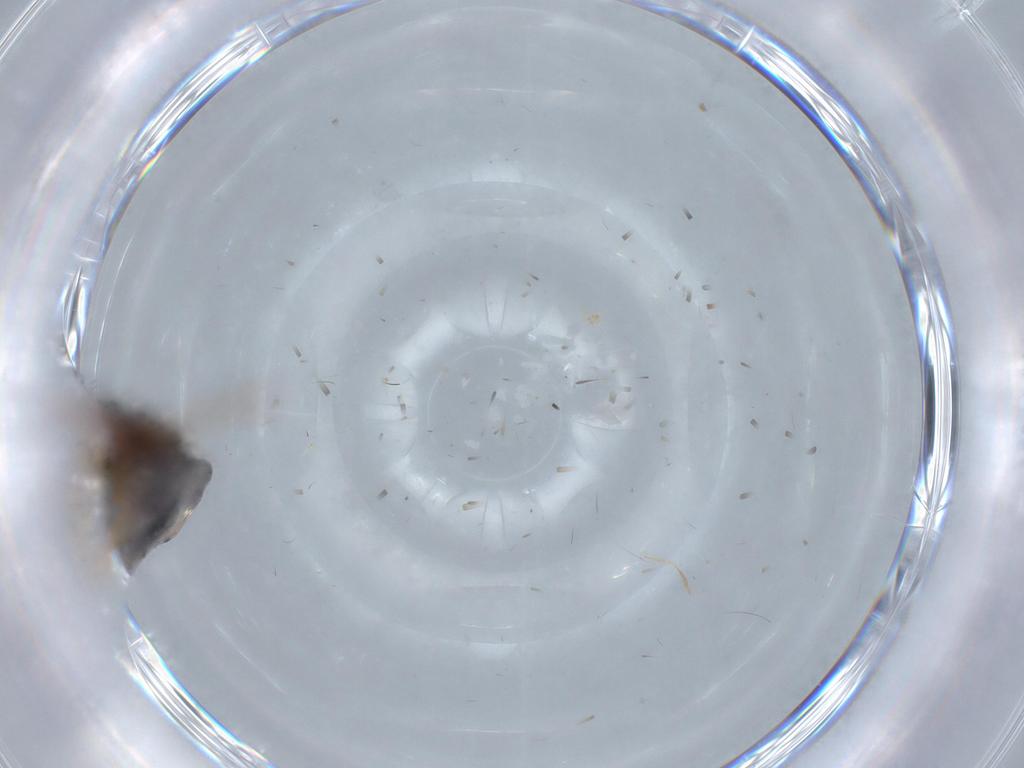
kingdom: Animalia
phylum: Arthropoda
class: Insecta
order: Hemiptera
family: Miridae
